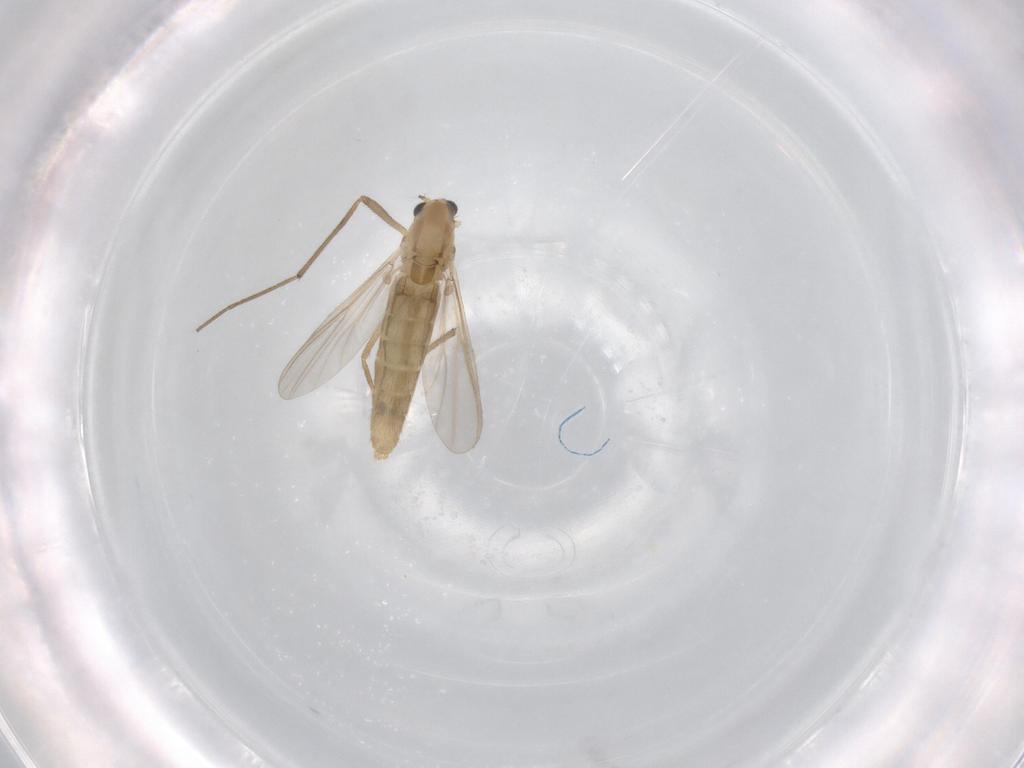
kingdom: Animalia
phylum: Arthropoda
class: Insecta
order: Diptera
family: Chironomidae
